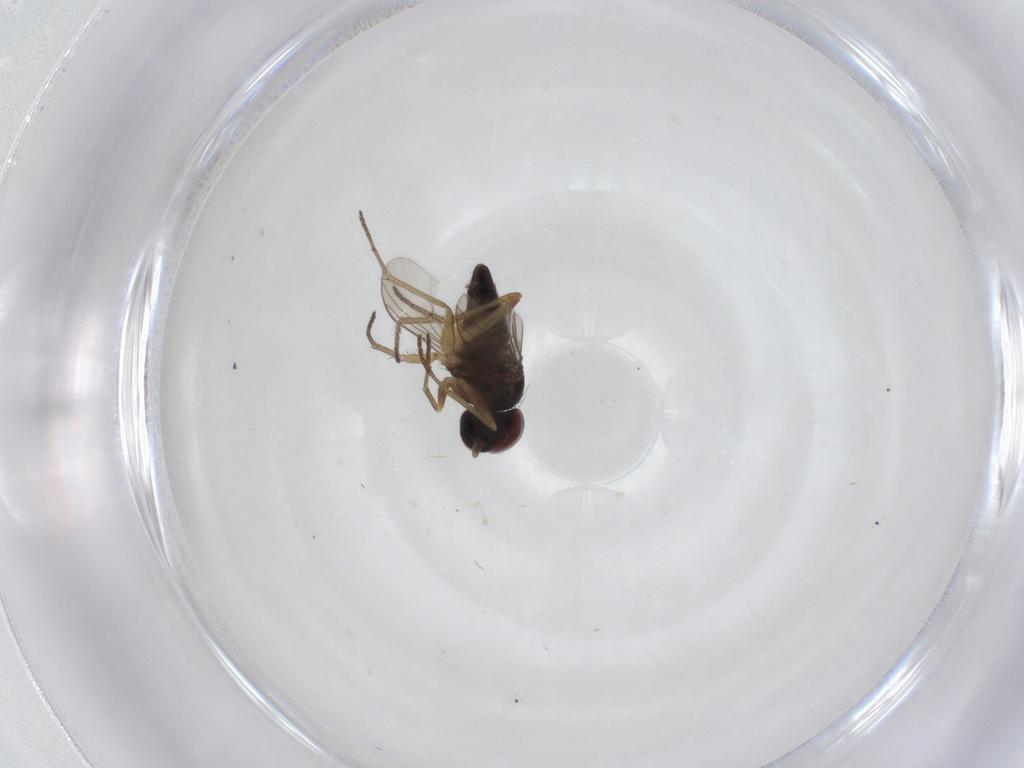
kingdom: Animalia
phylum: Arthropoda
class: Insecta
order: Diptera
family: Dolichopodidae
